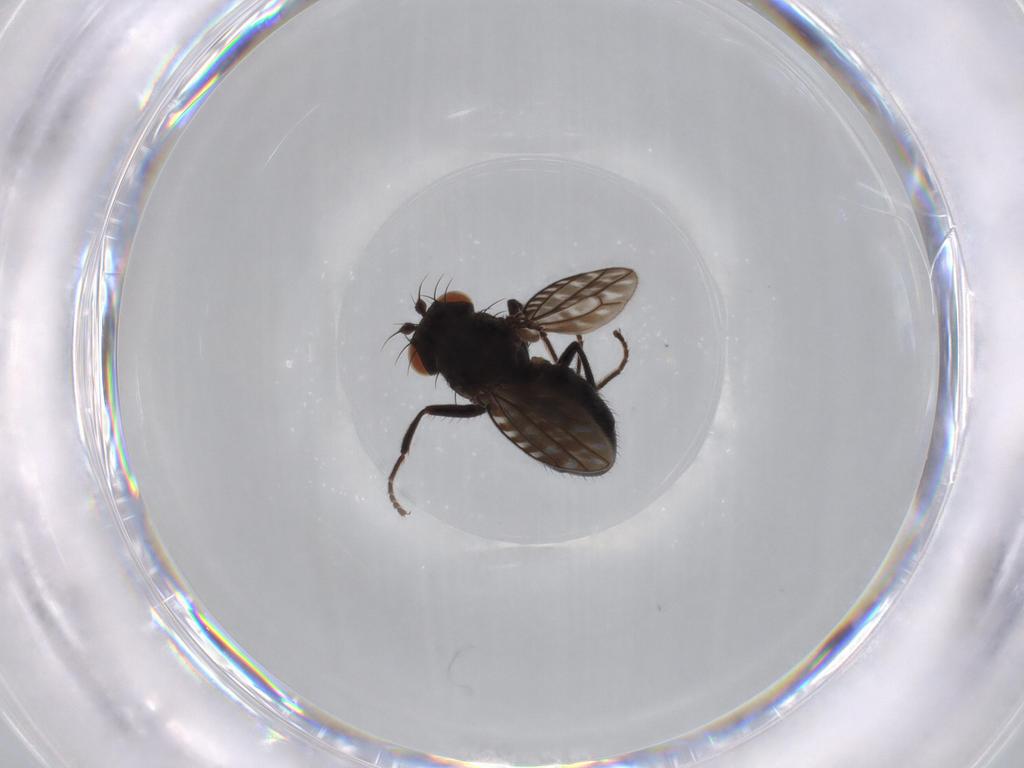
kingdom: Animalia
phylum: Arthropoda
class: Insecta
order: Diptera
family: Ephydridae
